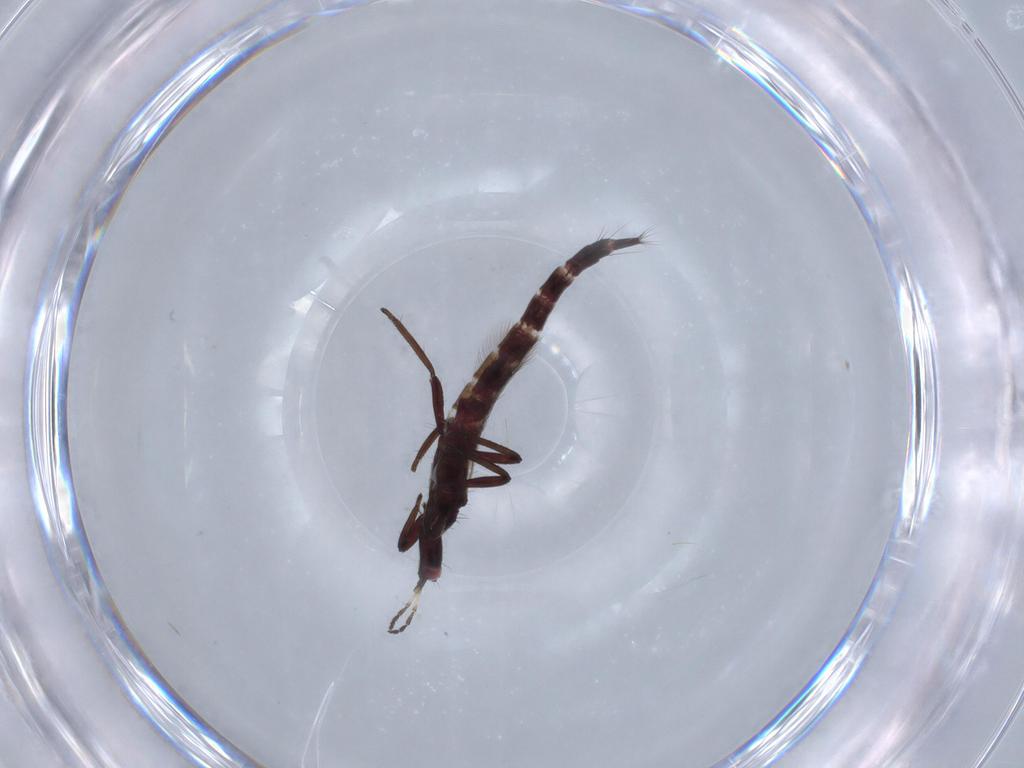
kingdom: Animalia
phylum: Arthropoda
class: Insecta
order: Thysanoptera
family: Phlaeothripidae
